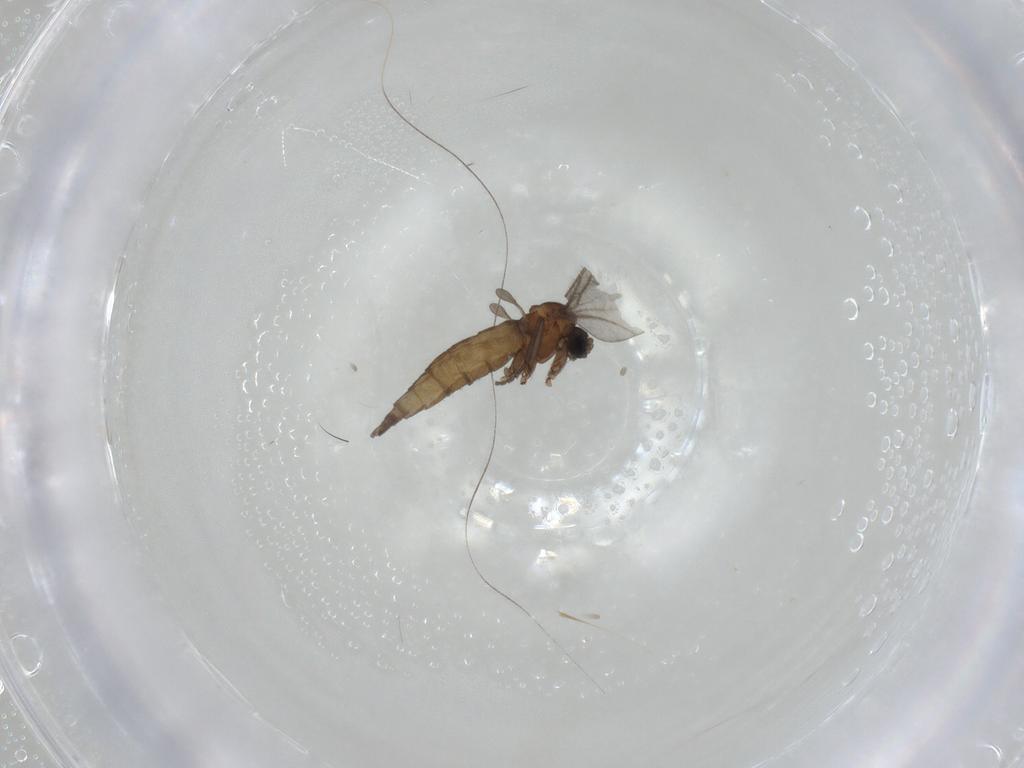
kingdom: Animalia
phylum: Arthropoda
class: Insecta
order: Diptera
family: Sciaridae
